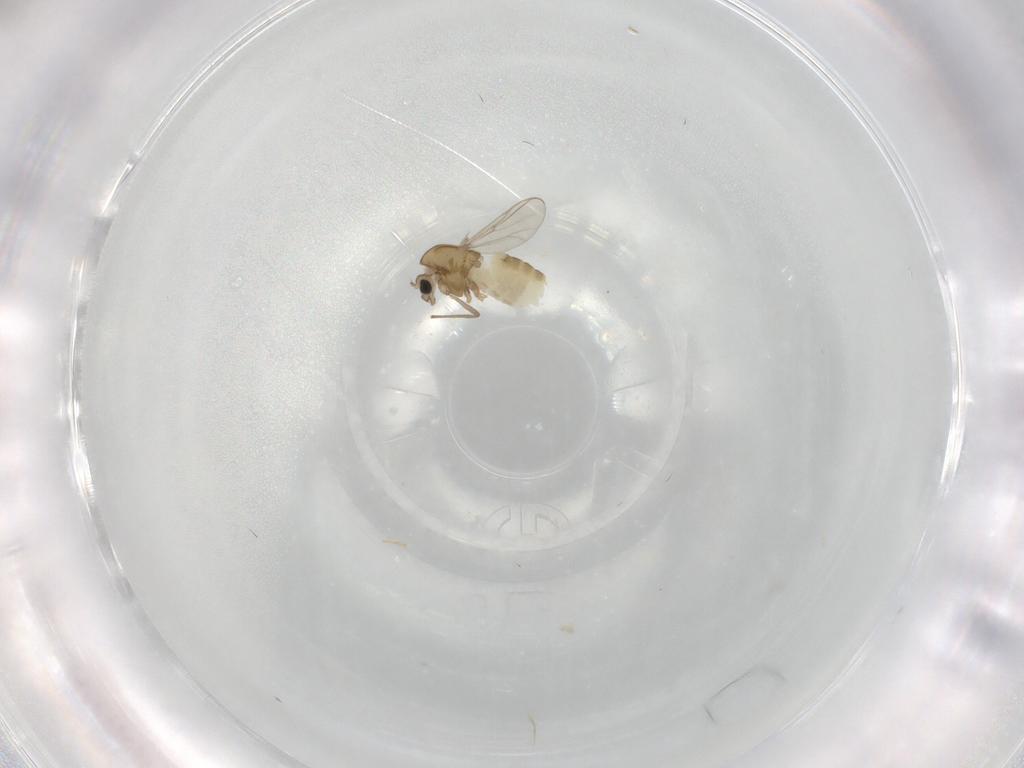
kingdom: Animalia
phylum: Arthropoda
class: Insecta
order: Diptera
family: Chironomidae
